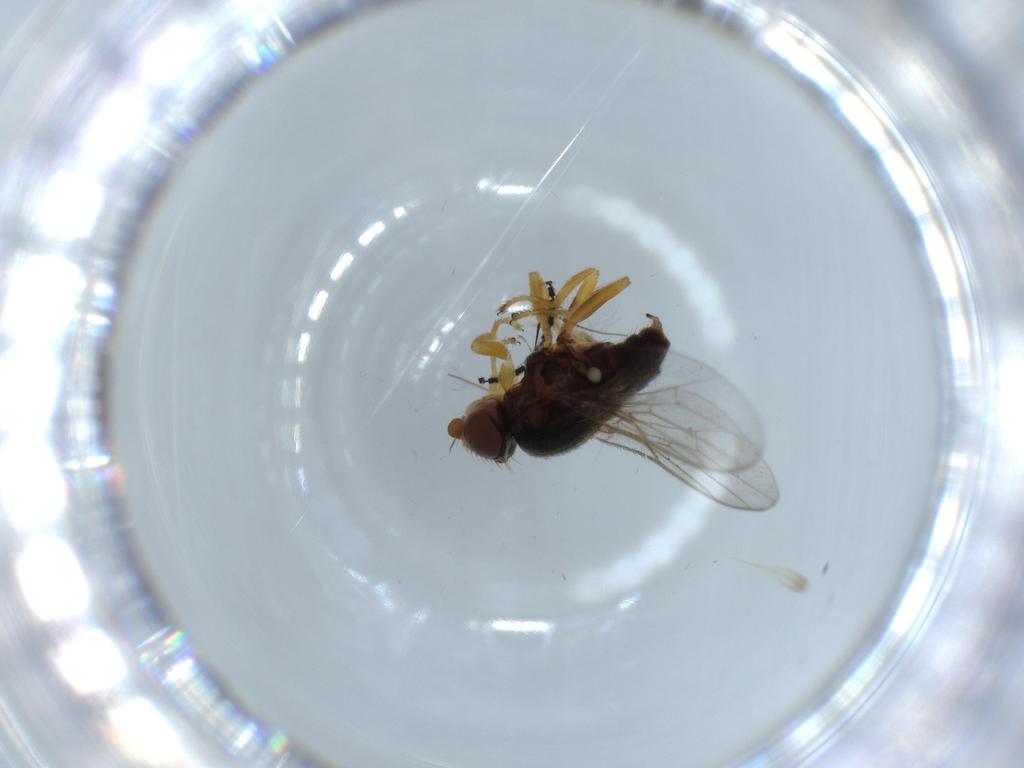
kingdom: Animalia
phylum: Arthropoda
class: Insecta
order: Diptera
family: Chloropidae
